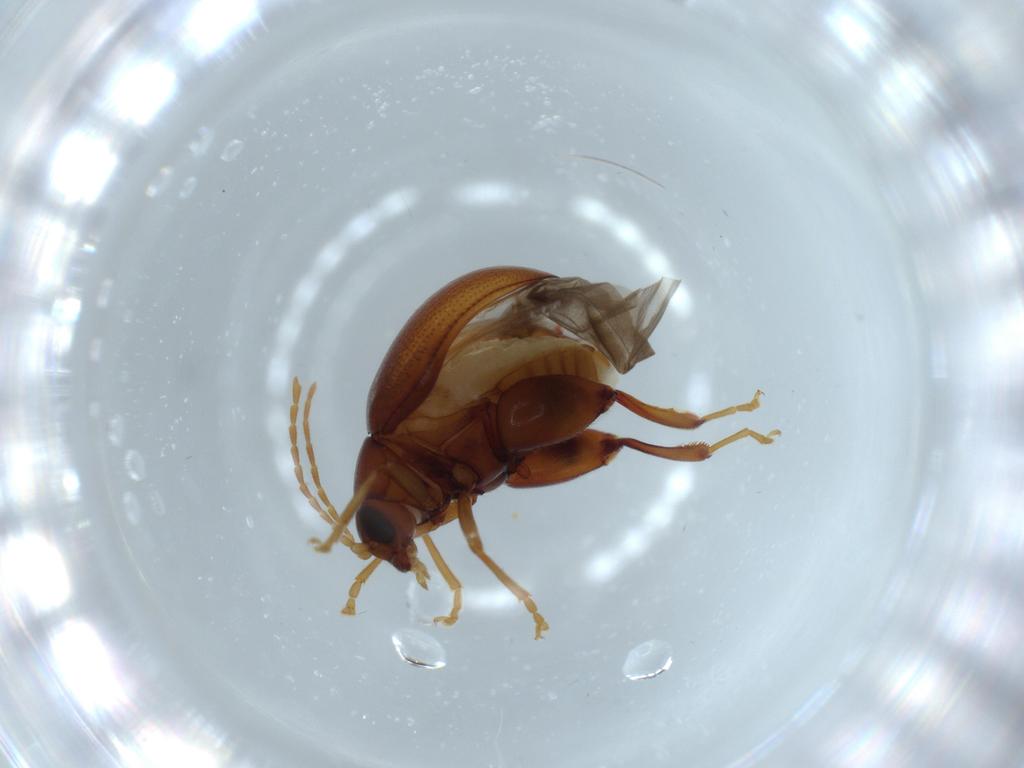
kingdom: Animalia
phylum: Arthropoda
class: Insecta
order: Coleoptera
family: Chrysomelidae
